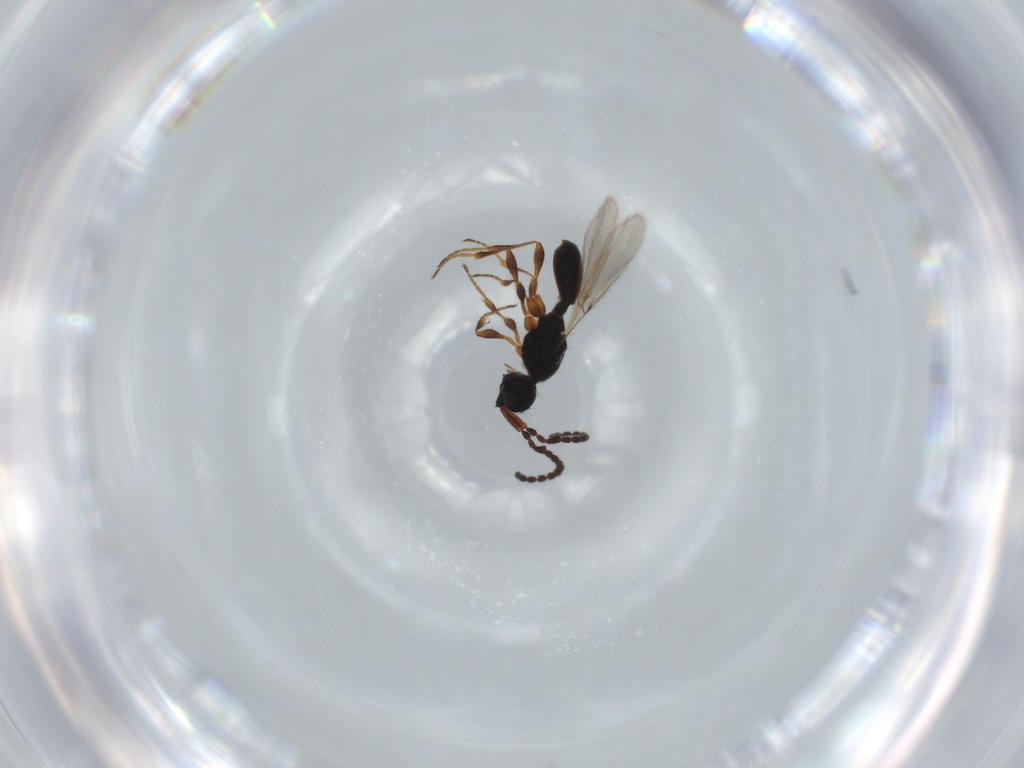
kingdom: Animalia
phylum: Arthropoda
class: Insecta
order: Hymenoptera
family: Diapriidae
